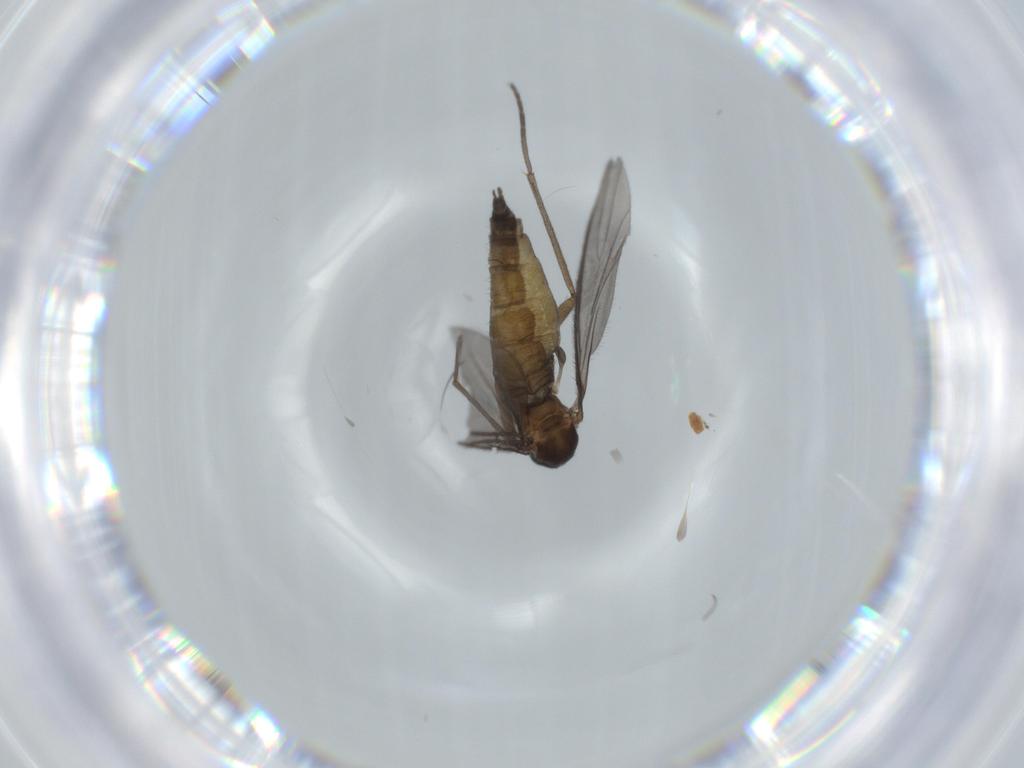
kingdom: Animalia
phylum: Arthropoda
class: Insecta
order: Diptera
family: Sciaridae
